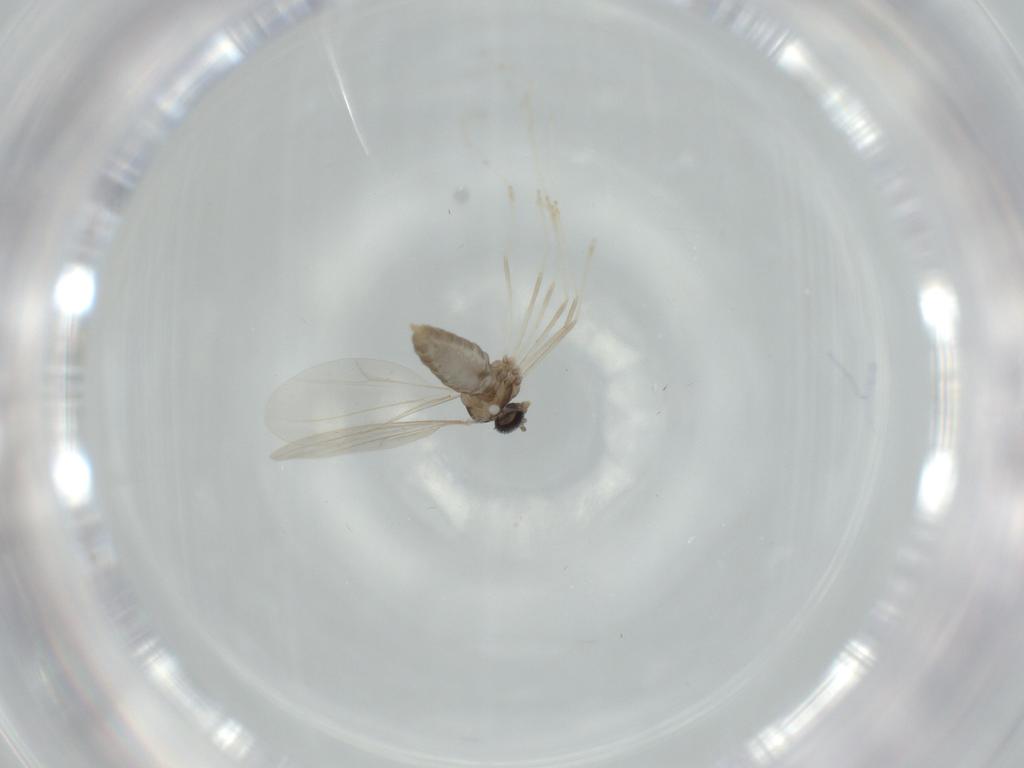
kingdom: Animalia
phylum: Arthropoda
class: Insecta
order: Diptera
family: Cecidomyiidae
